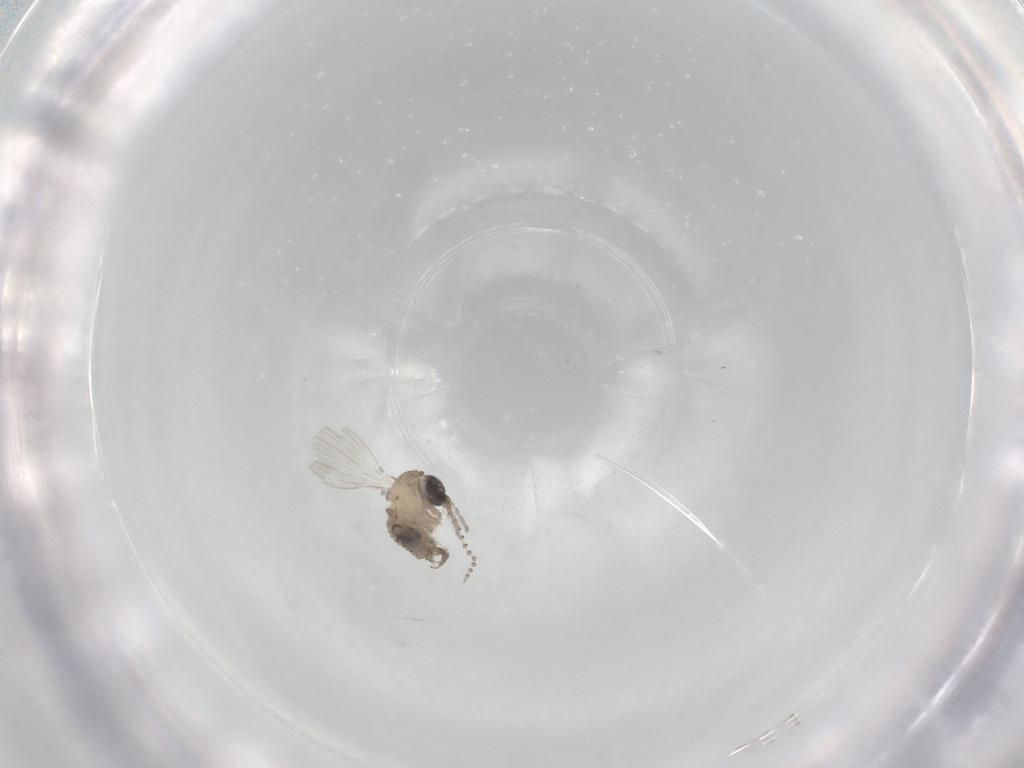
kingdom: Animalia
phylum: Arthropoda
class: Insecta
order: Diptera
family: Psychodidae
